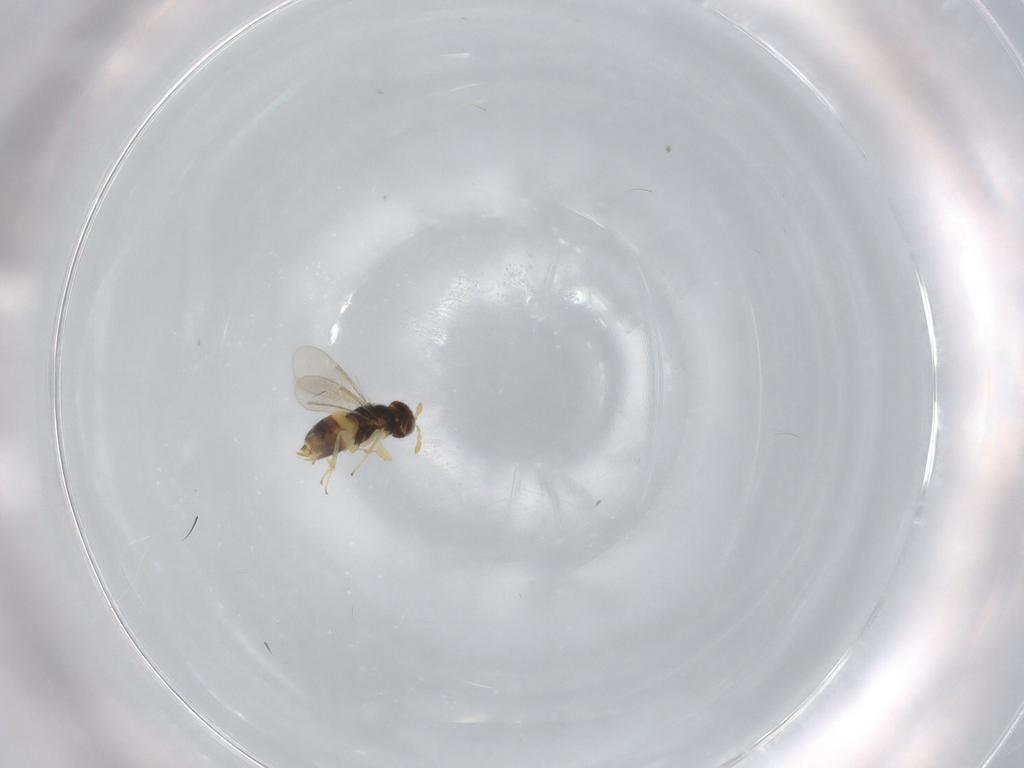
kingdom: Animalia
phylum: Arthropoda
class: Insecta
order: Hymenoptera
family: Aphelinidae
